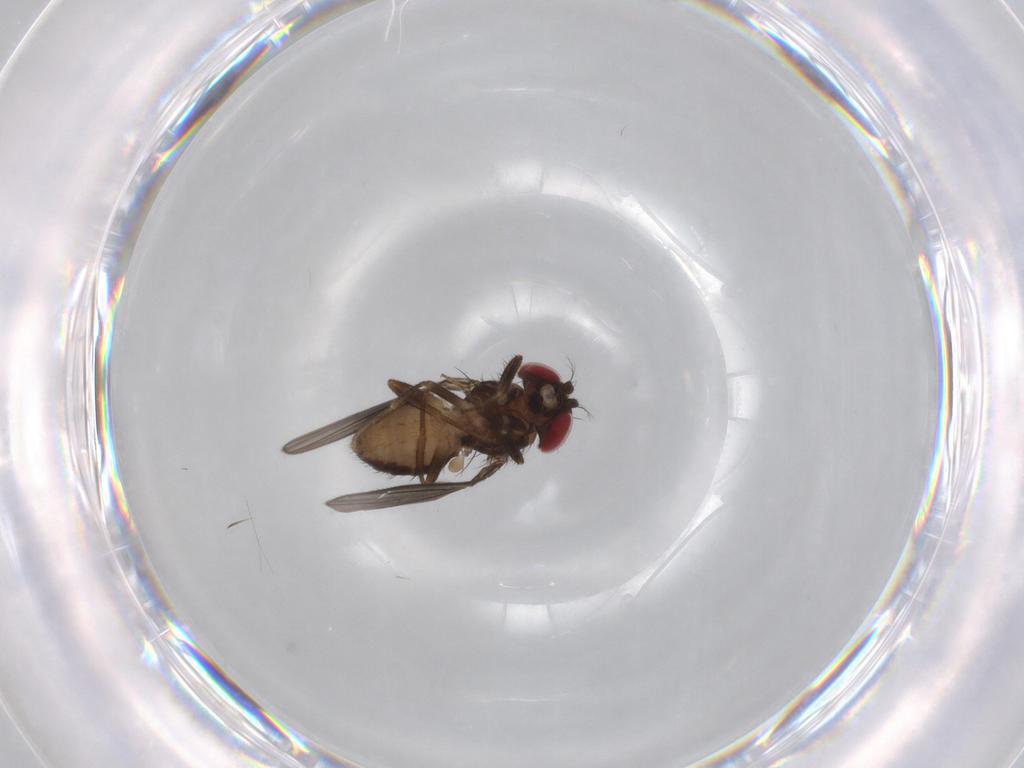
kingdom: Animalia
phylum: Arthropoda
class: Insecta
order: Diptera
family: Drosophilidae
